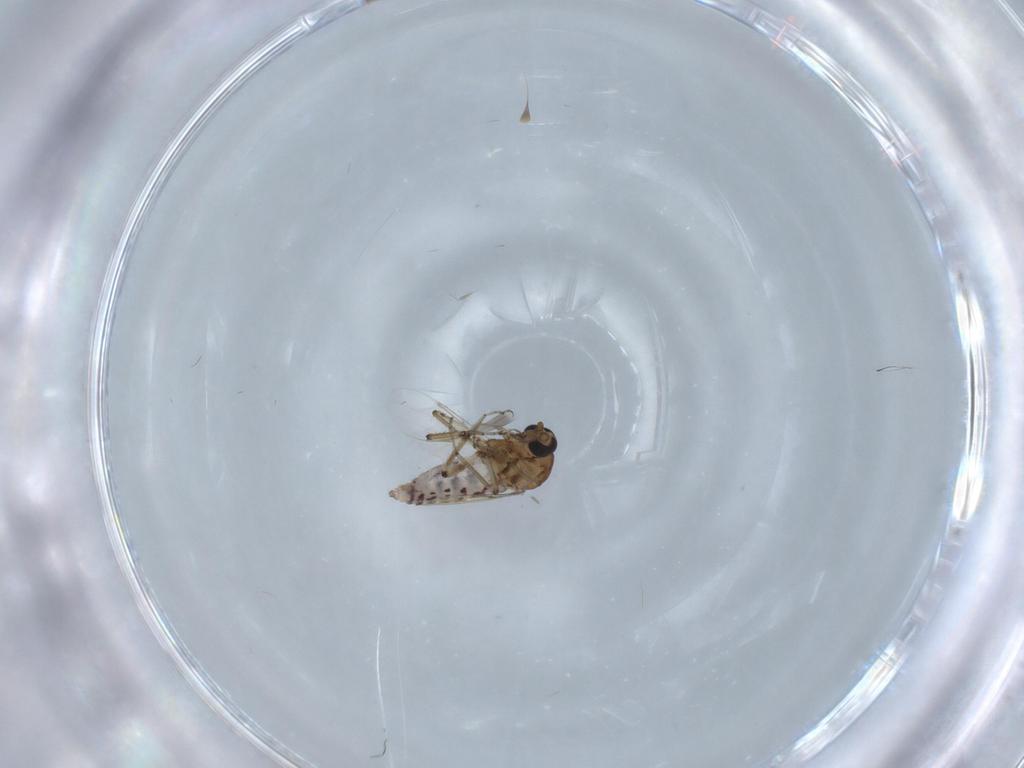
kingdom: Animalia
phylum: Arthropoda
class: Insecta
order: Diptera
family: Ceratopogonidae
